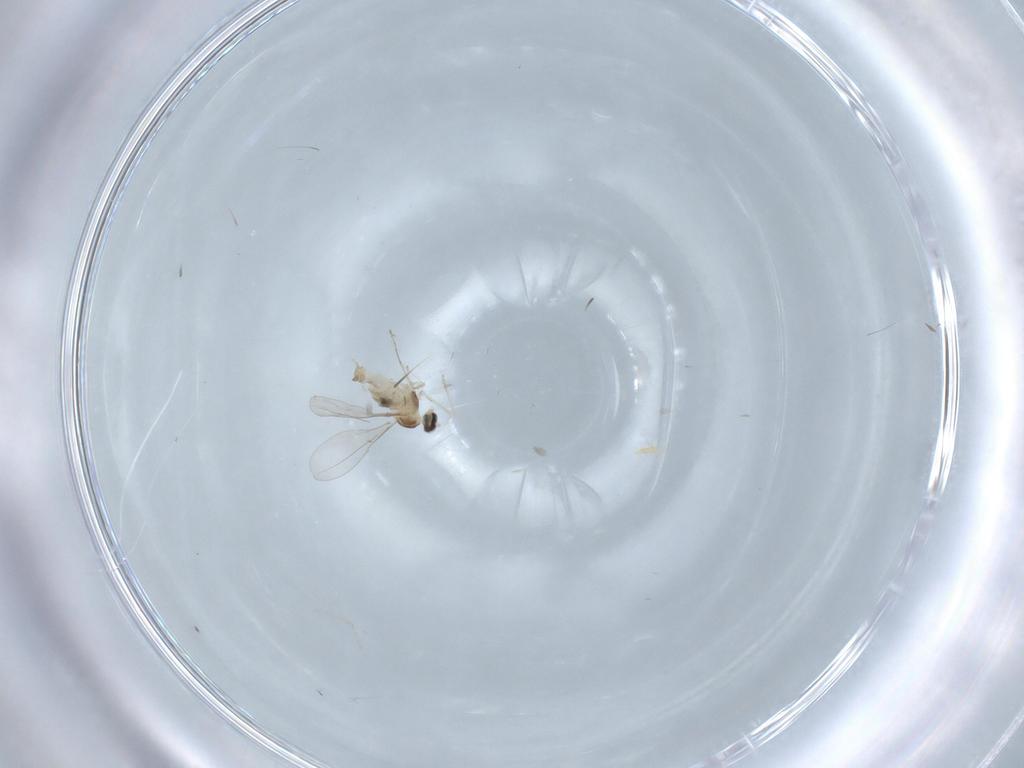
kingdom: Animalia
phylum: Arthropoda
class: Insecta
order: Diptera
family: Cecidomyiidae
